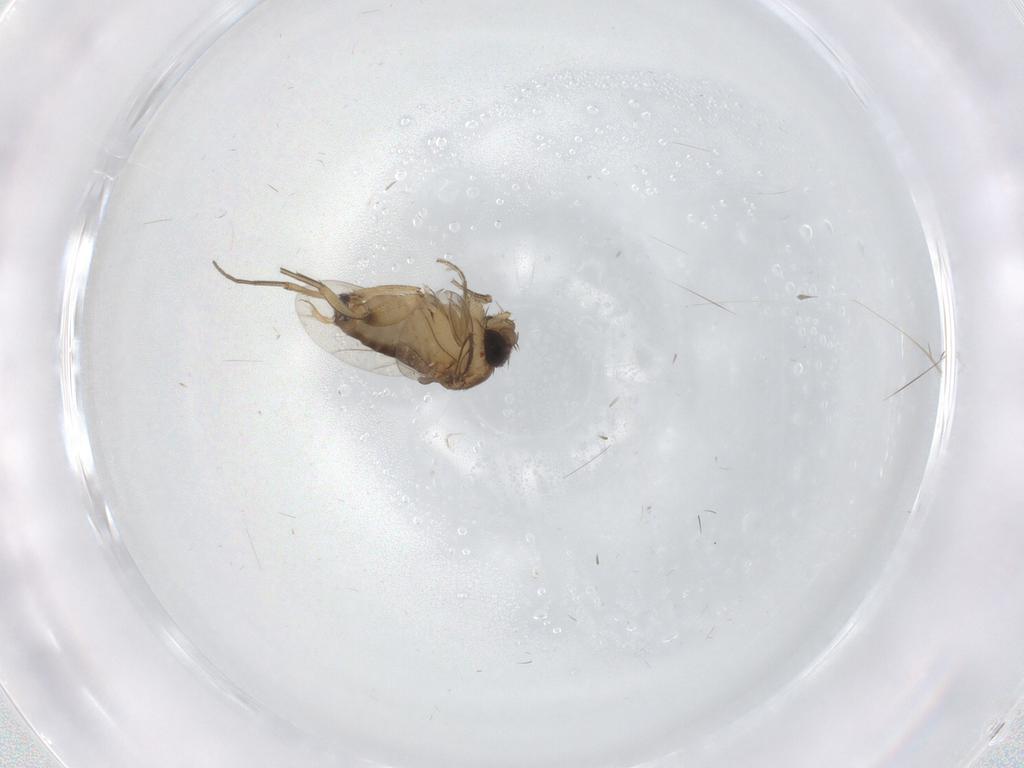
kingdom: Animalia
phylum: Arthropoda
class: Insecta
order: Diptera
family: Phoridae
